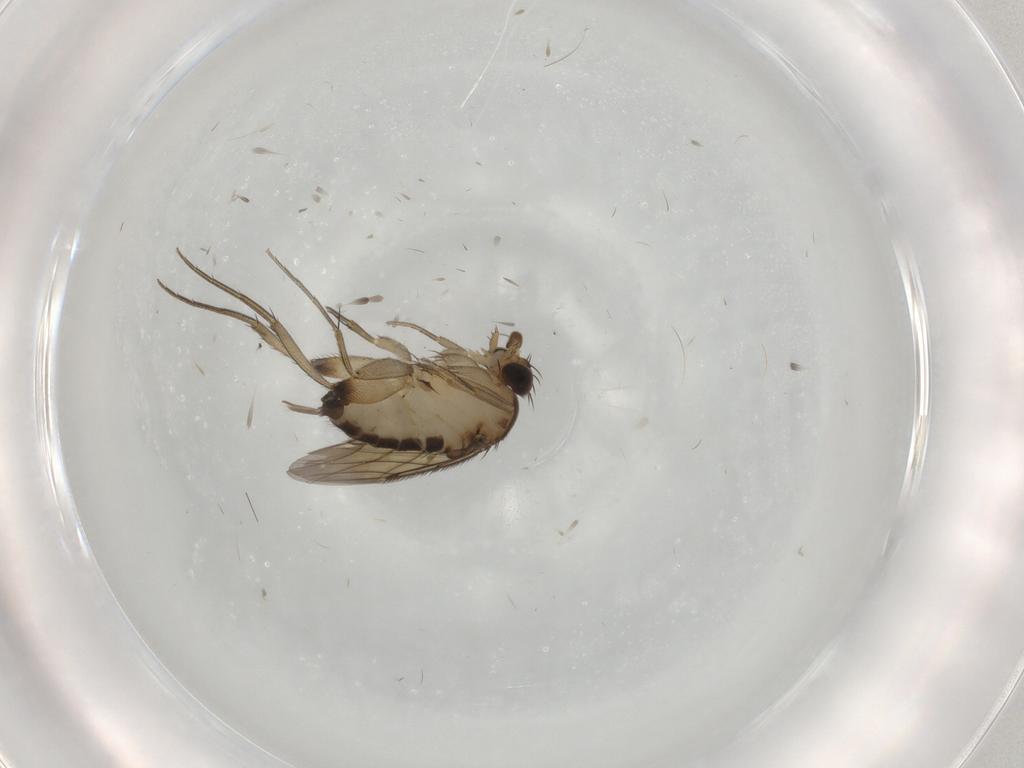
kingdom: Animalia
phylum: Arthropoda
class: Insecta
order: Diptera
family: Phoridae
